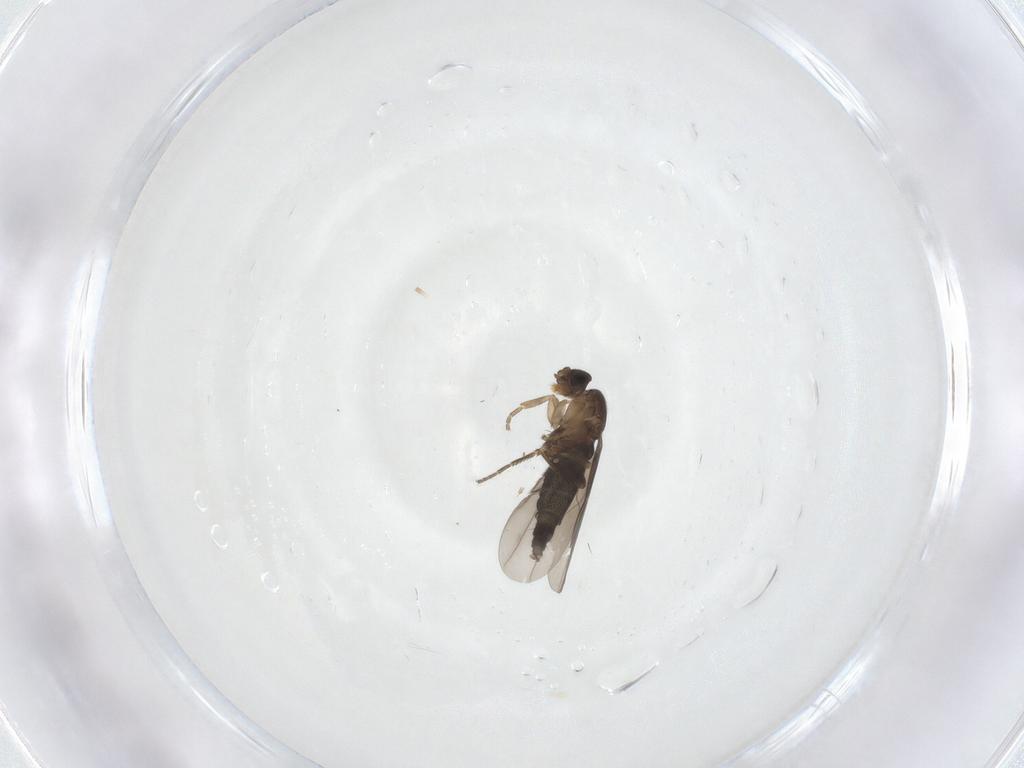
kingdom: Animalia
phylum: Arthropoda
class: Insecta
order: Diptera
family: Phoridae
